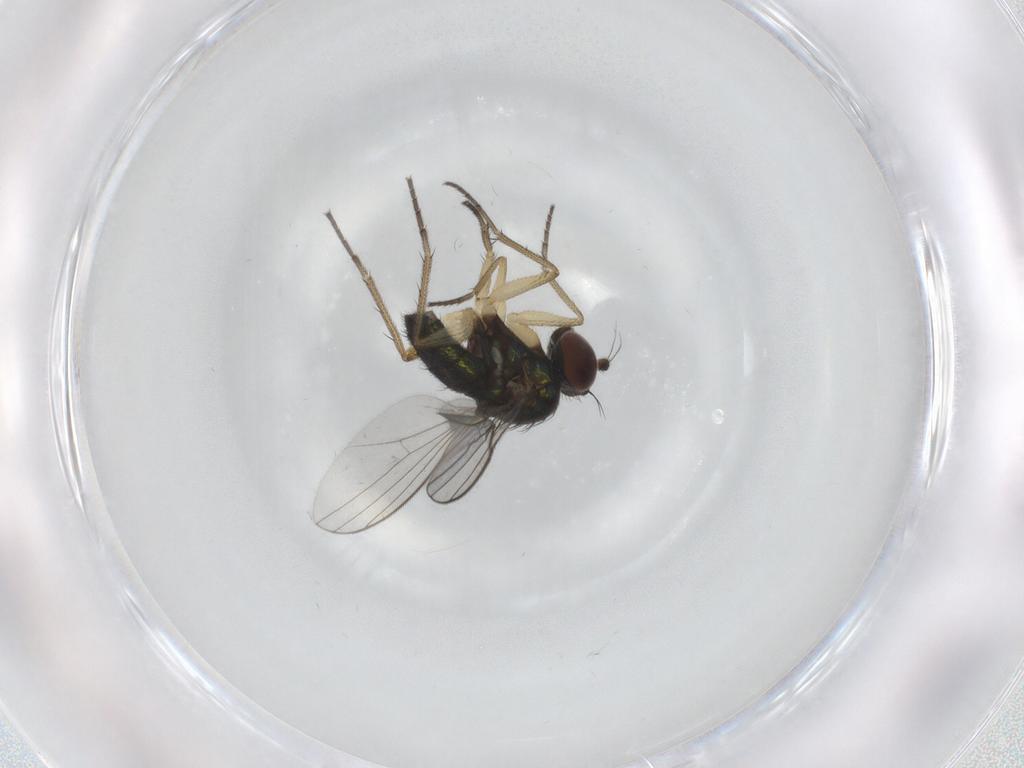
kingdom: Animalia
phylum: Arthropoda
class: Insecta
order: Diptera
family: Dolichopodidae
